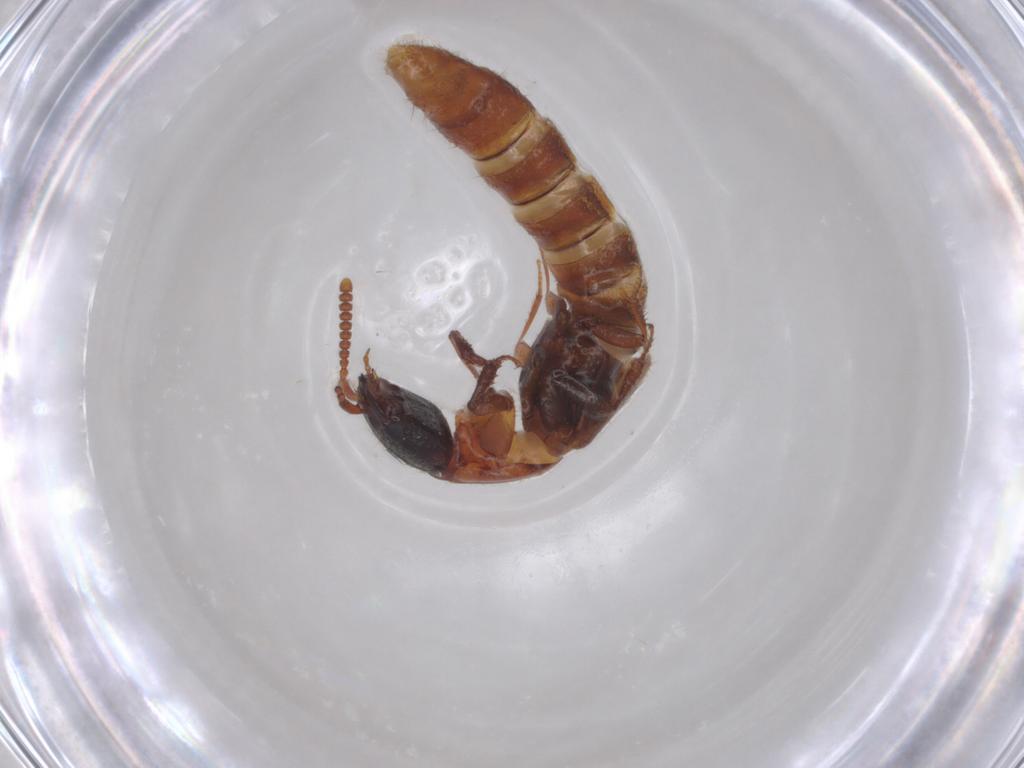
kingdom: Animalia
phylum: Arthropoda
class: Insecta
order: Coleoptera
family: Staphylinidae
